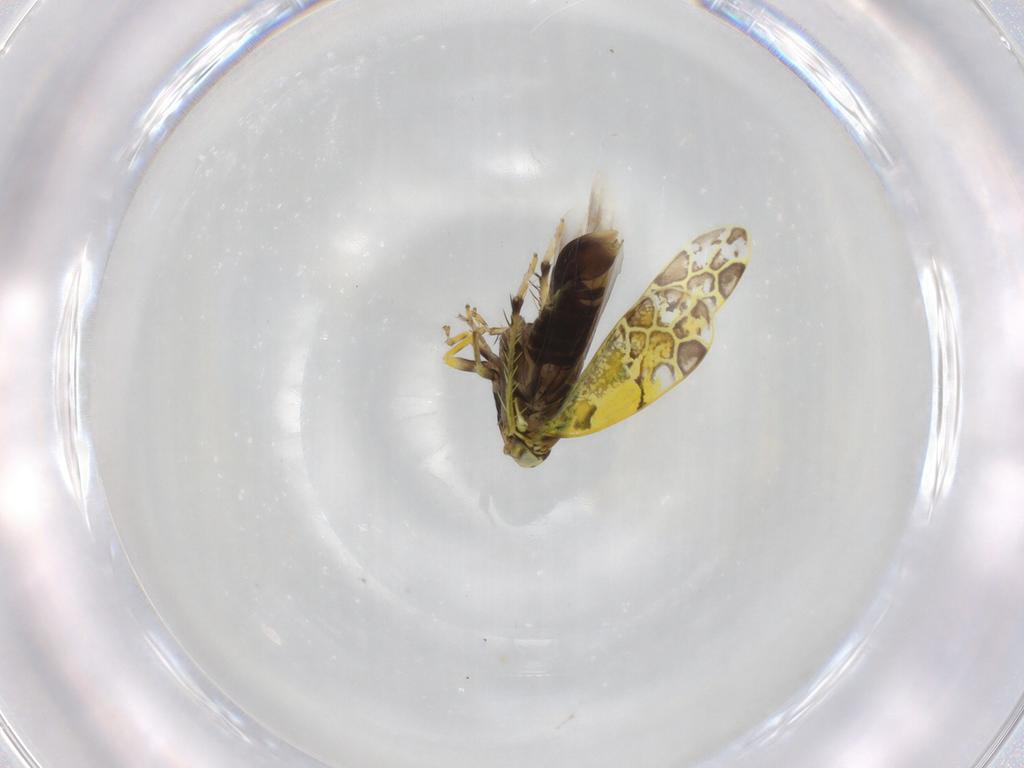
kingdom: Animalia
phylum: Arthropoda
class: Insecta
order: Hemiptera
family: Cicadellidae
